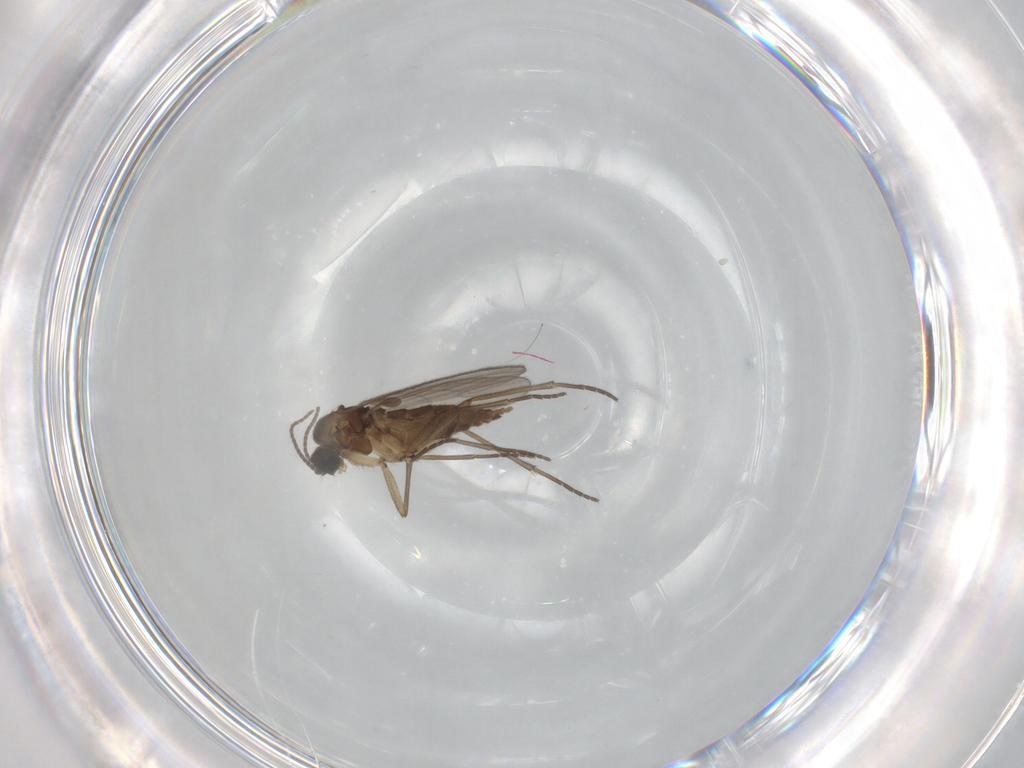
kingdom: Animalia
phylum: Arthropoda
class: Insecta
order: Diptera
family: Sciaridae
